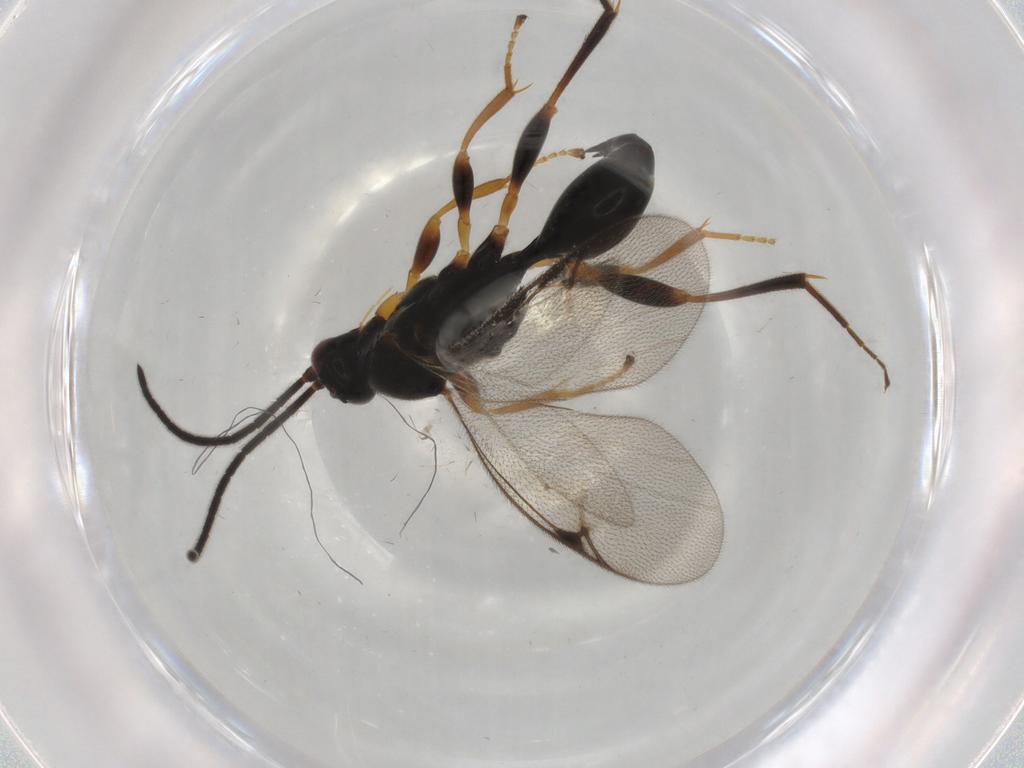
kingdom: Animalia
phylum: Arthropoda
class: Insecta
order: Hymenoptera
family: Proctotrupidae
